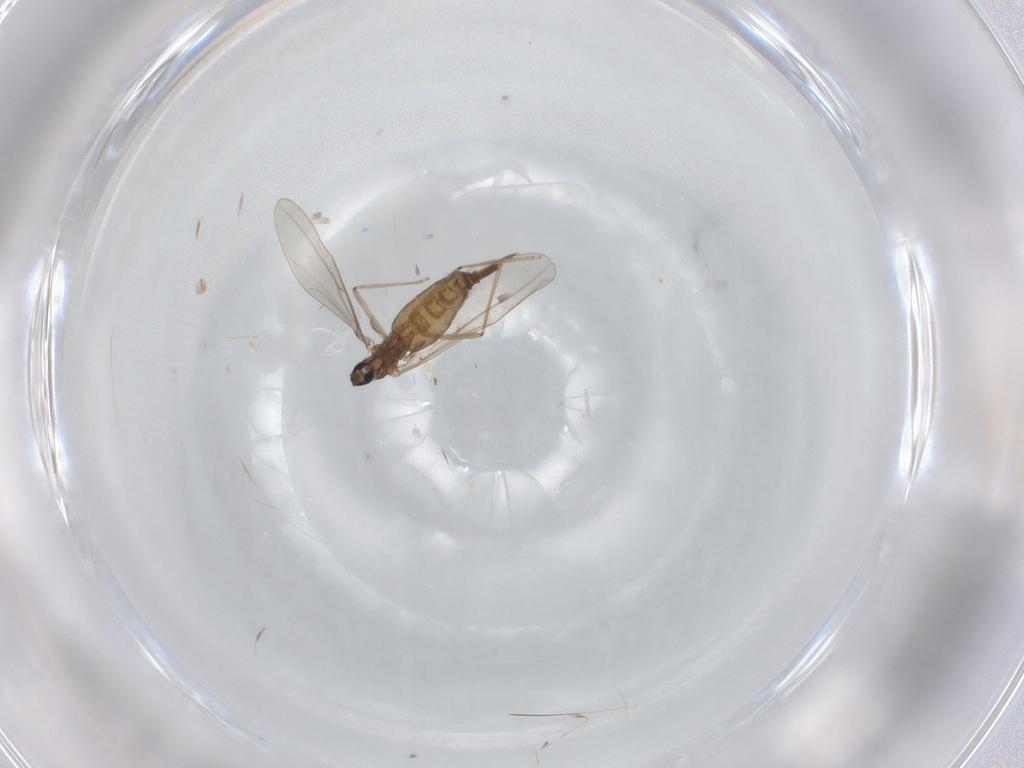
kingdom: Animalia
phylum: Arthropoda
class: Insecta
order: Diptera
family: Cecidomyiidae
